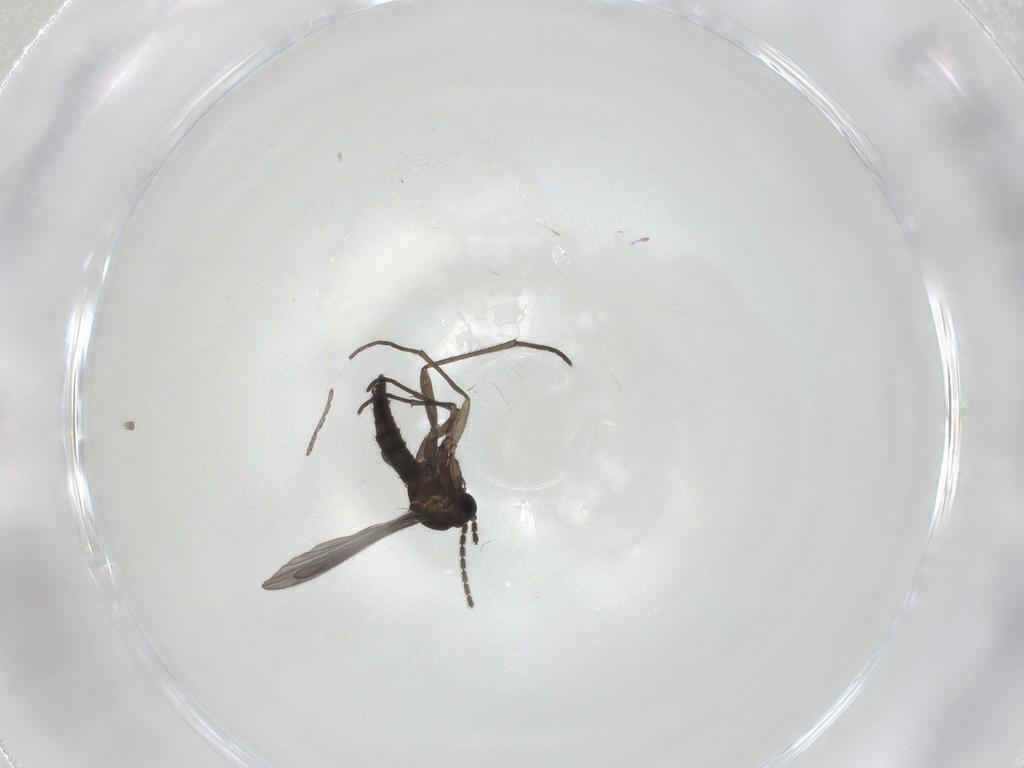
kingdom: Animalia
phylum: Arthropoda
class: Insecta
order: Diptera
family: Sciaridae
